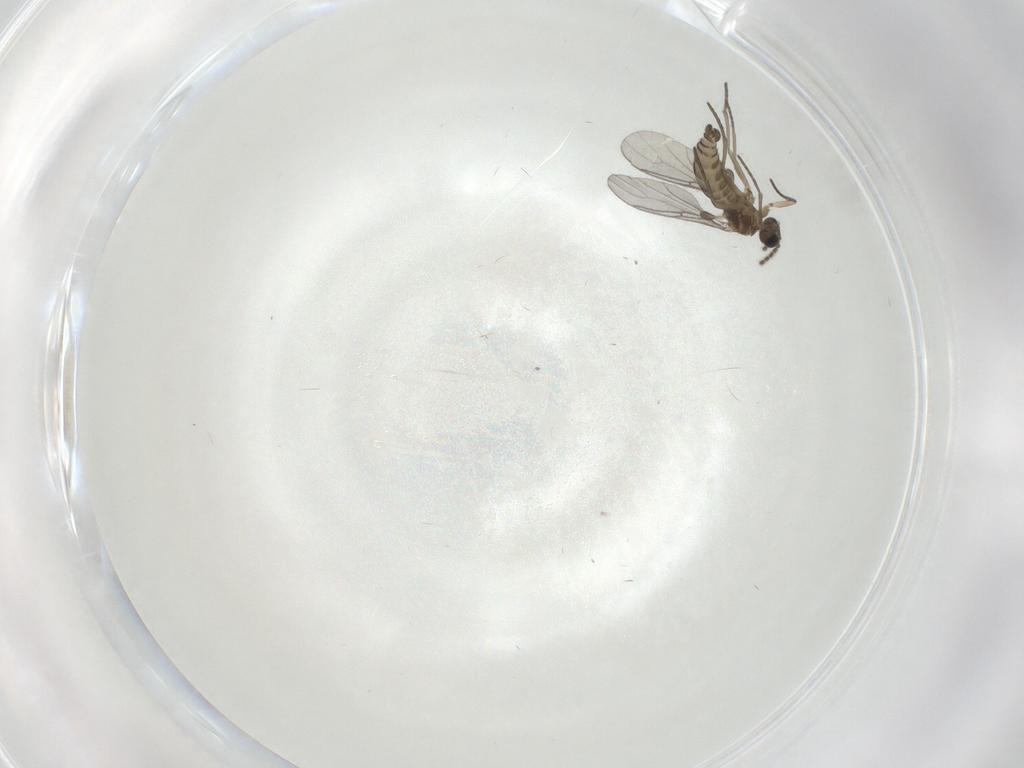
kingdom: Animalia
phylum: Arthropoda
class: Insecta
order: Diptera
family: Sciaridae
